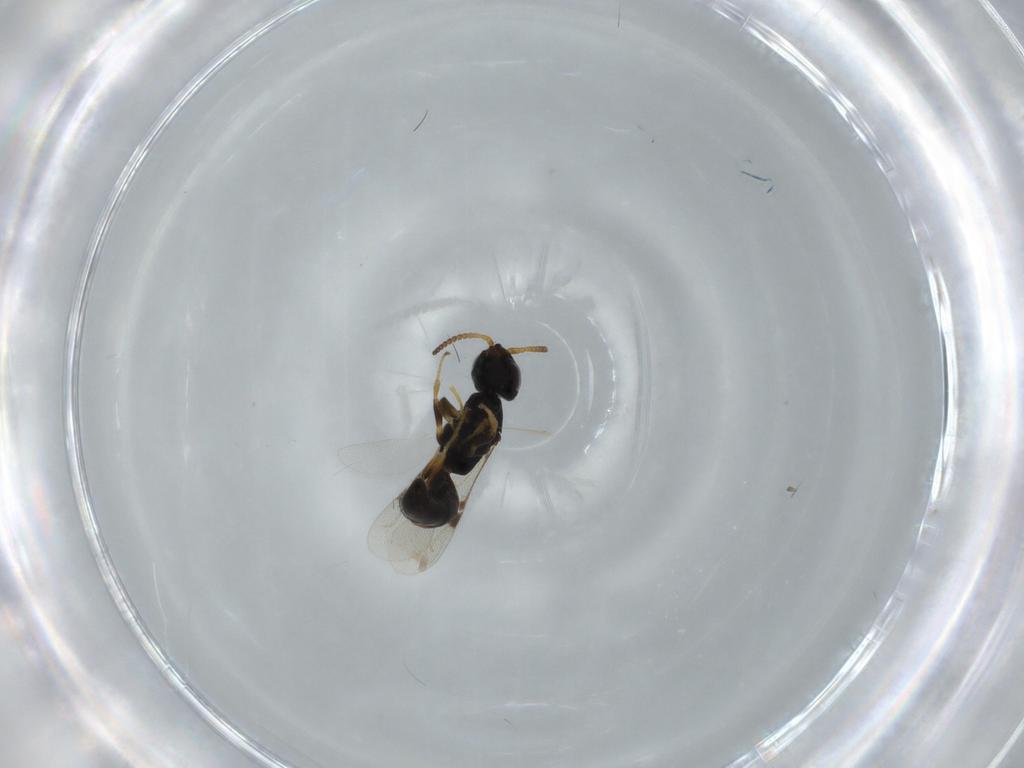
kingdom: Animalia
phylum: Arthropoda
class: Insecta
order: Hymenoptera
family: Bethylidae
